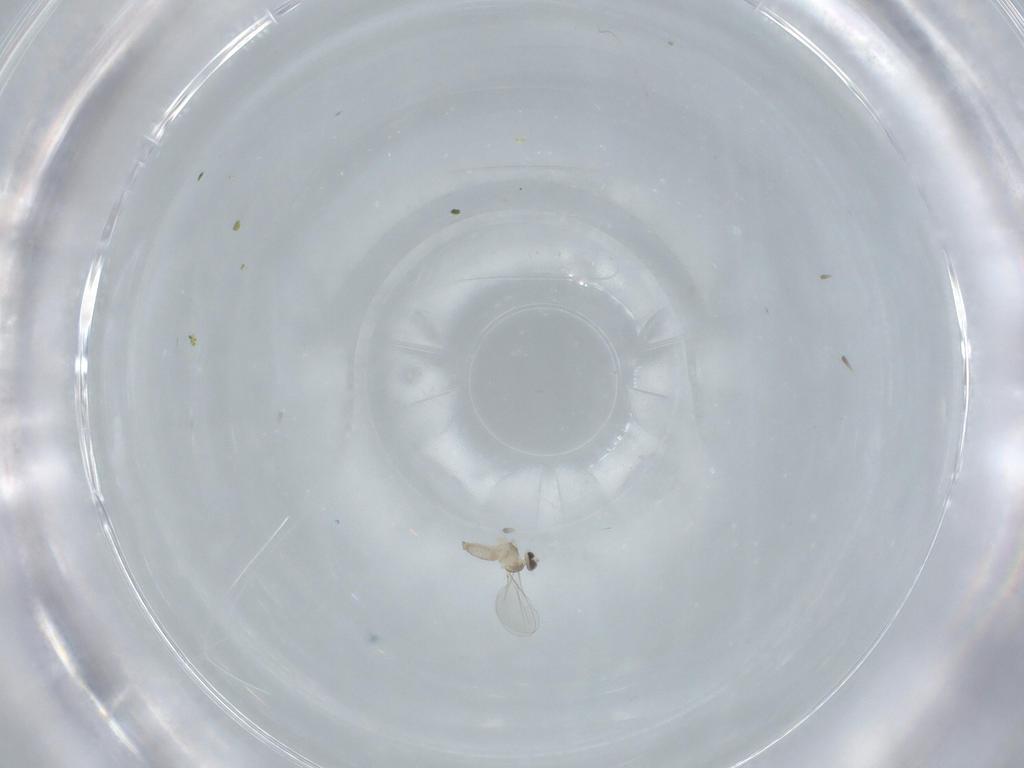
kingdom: Animalia
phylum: Arthropoda
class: Insecta
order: Diptera
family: Cecidomyiidae
